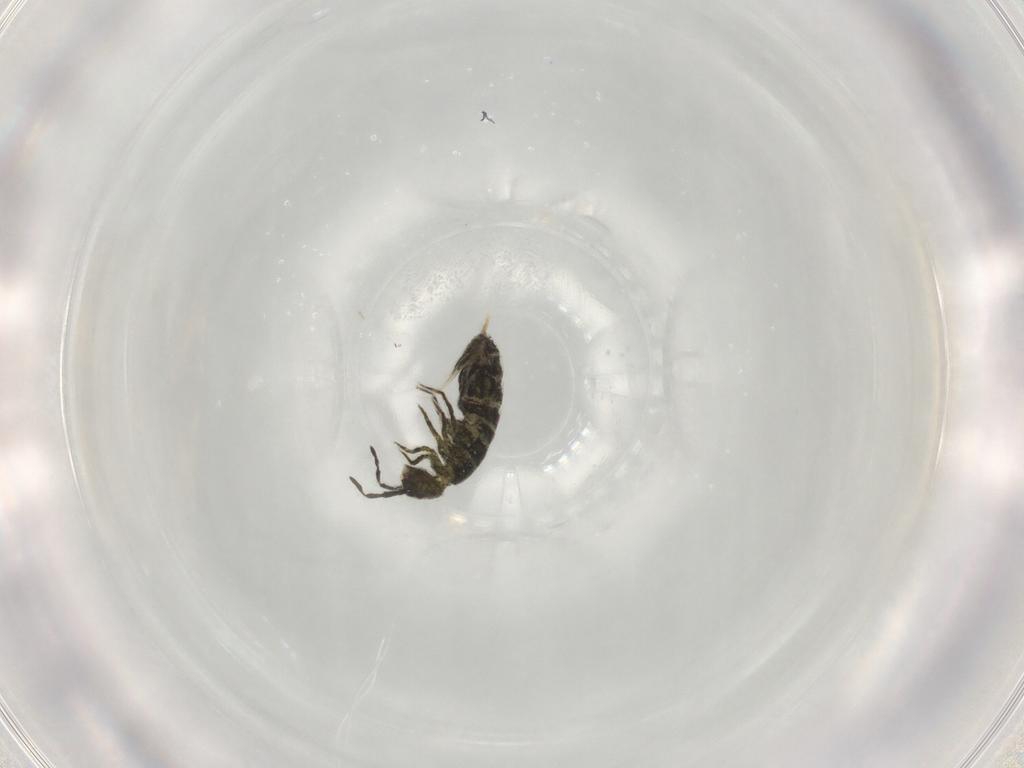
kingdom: Animalia
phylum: Arthropoda
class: Collembola
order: Entomobryomorpha
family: Isotomidae
